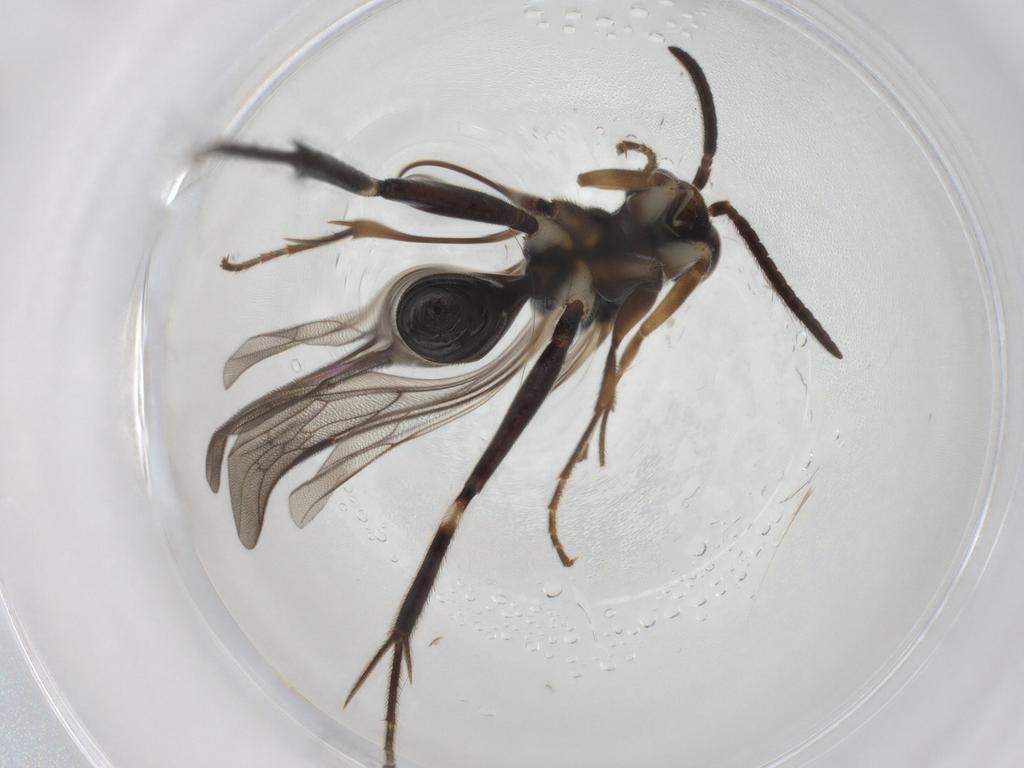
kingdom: Animalia
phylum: Arthropoda
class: Insecta
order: Hymenoptera
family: Pompilidae
